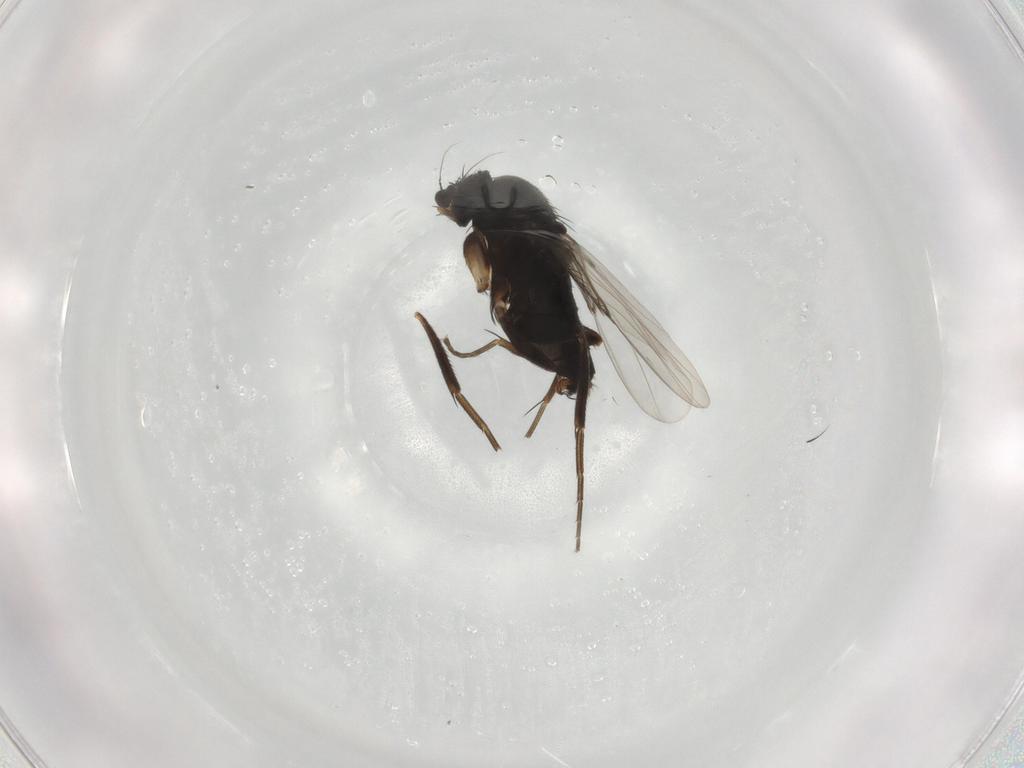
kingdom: Animalia
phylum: Arthropoda
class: Insecta
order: Diptera
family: Phoridae
